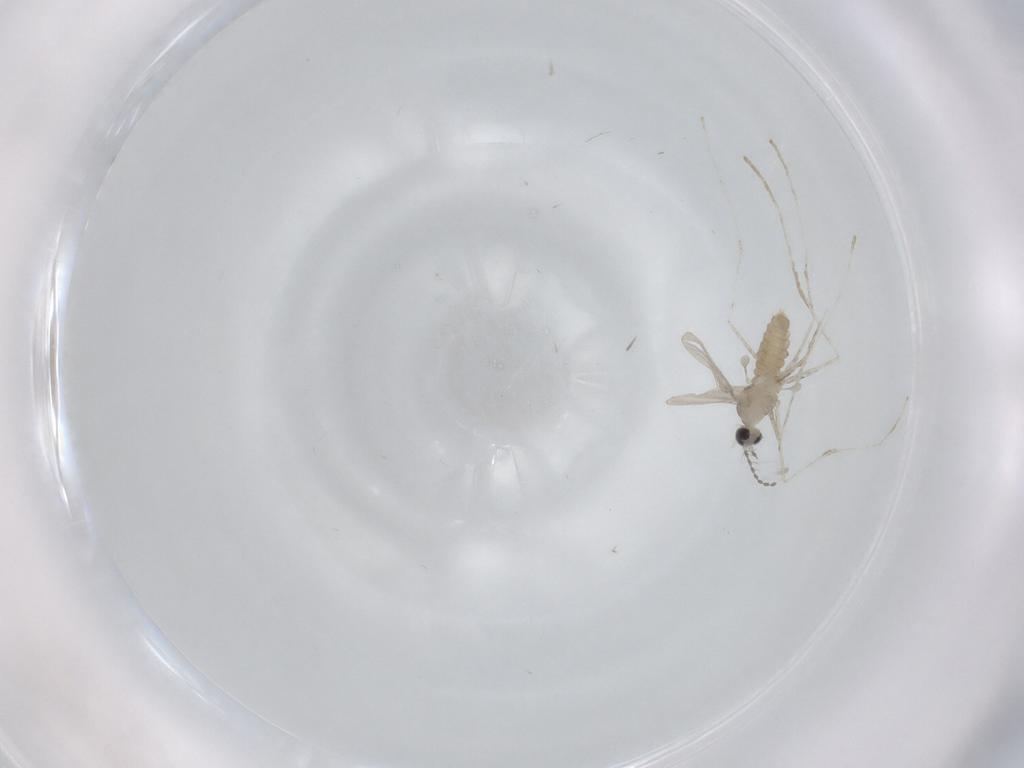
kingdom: Animalia
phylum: Arthropoda
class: Insecta
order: Diptera
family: Cecidomyiidae
